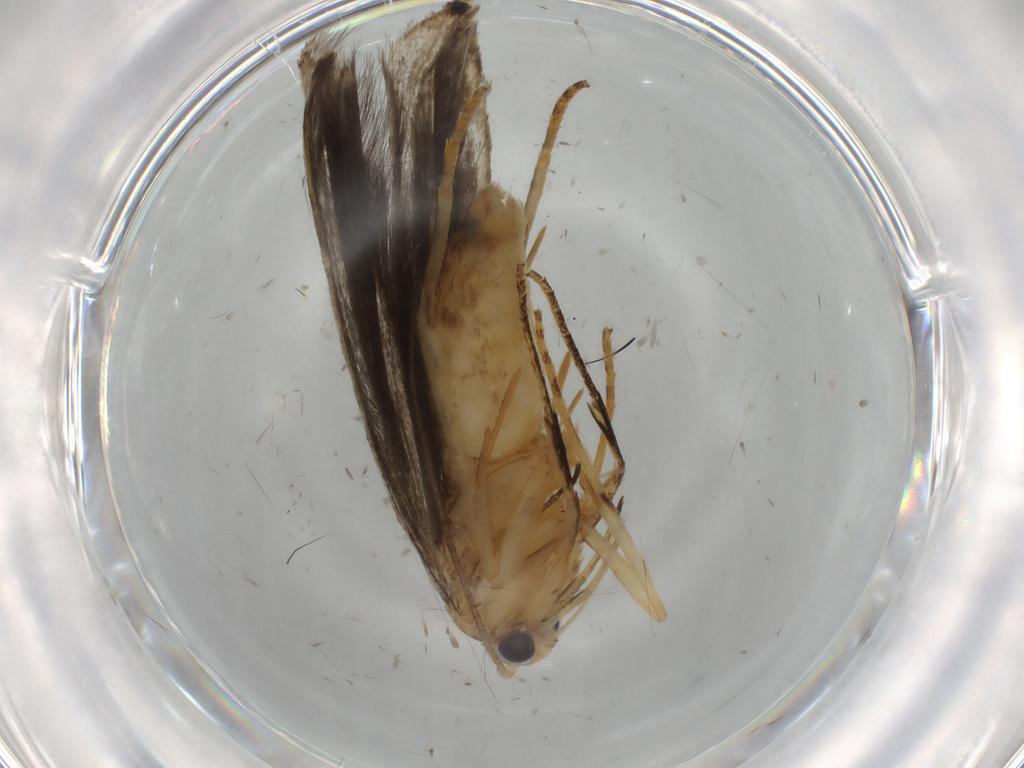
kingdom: Animalia
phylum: Arthropoda
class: Insecta
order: Lepidoptera
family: Gelechiidae
